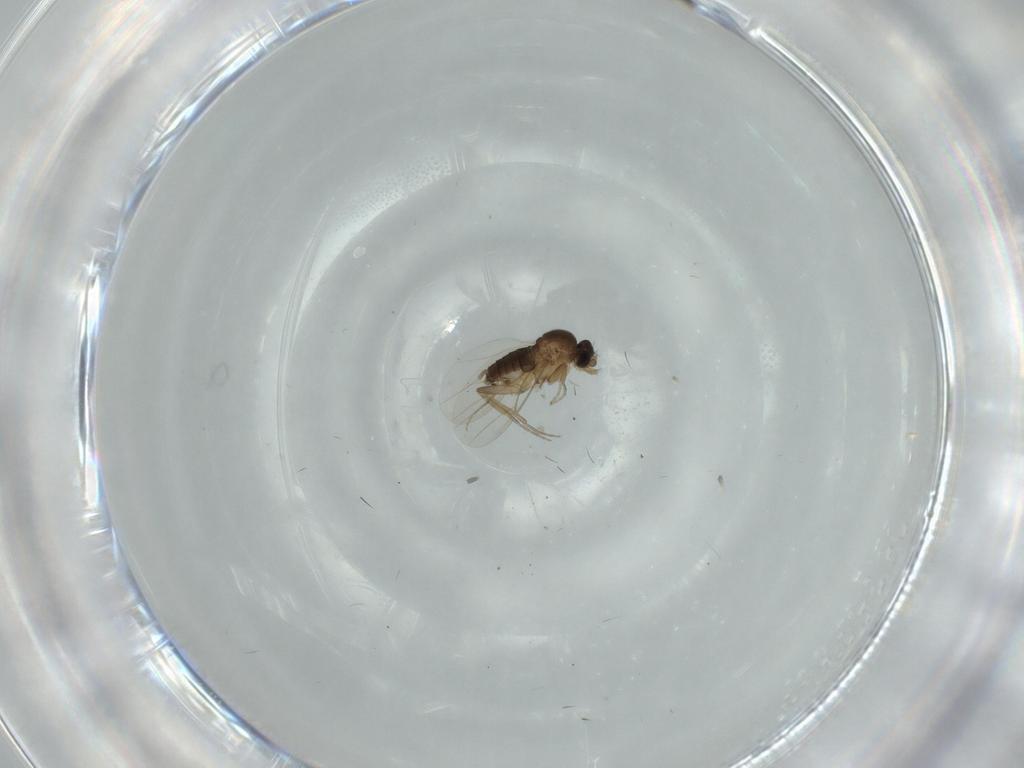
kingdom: Animalia
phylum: Arthropoda
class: Insecta
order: Diptera
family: Phoridae
